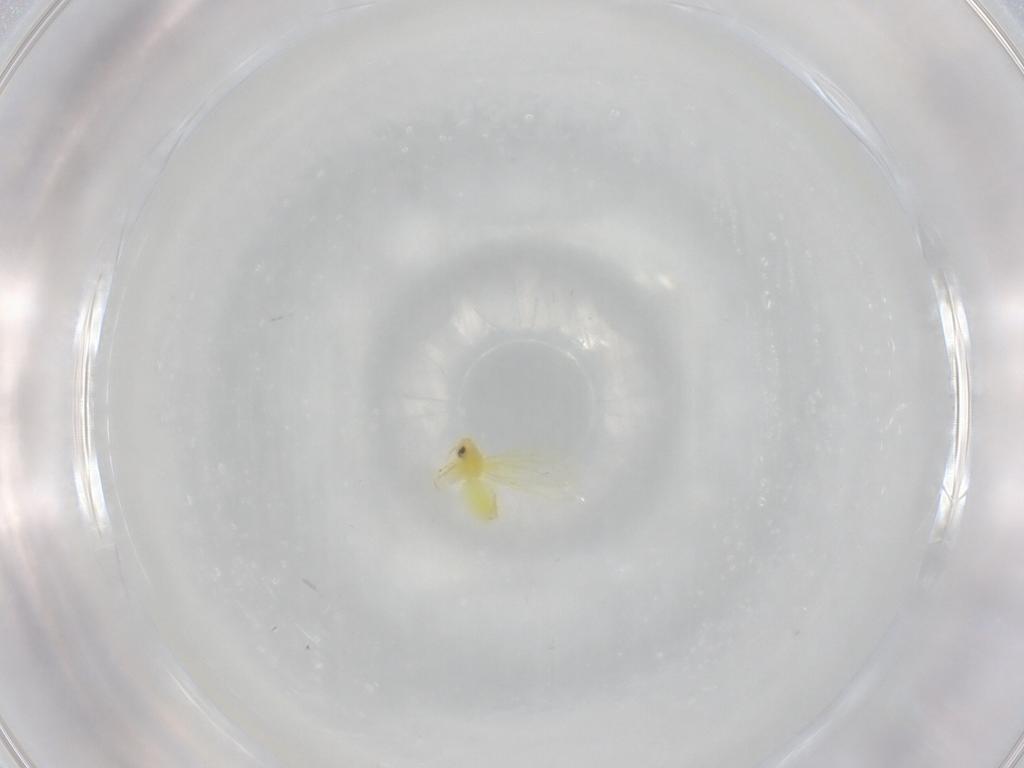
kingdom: Animalia
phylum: Arthropoda
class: Insecta
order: Hemiptera
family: Aleyrodidae
